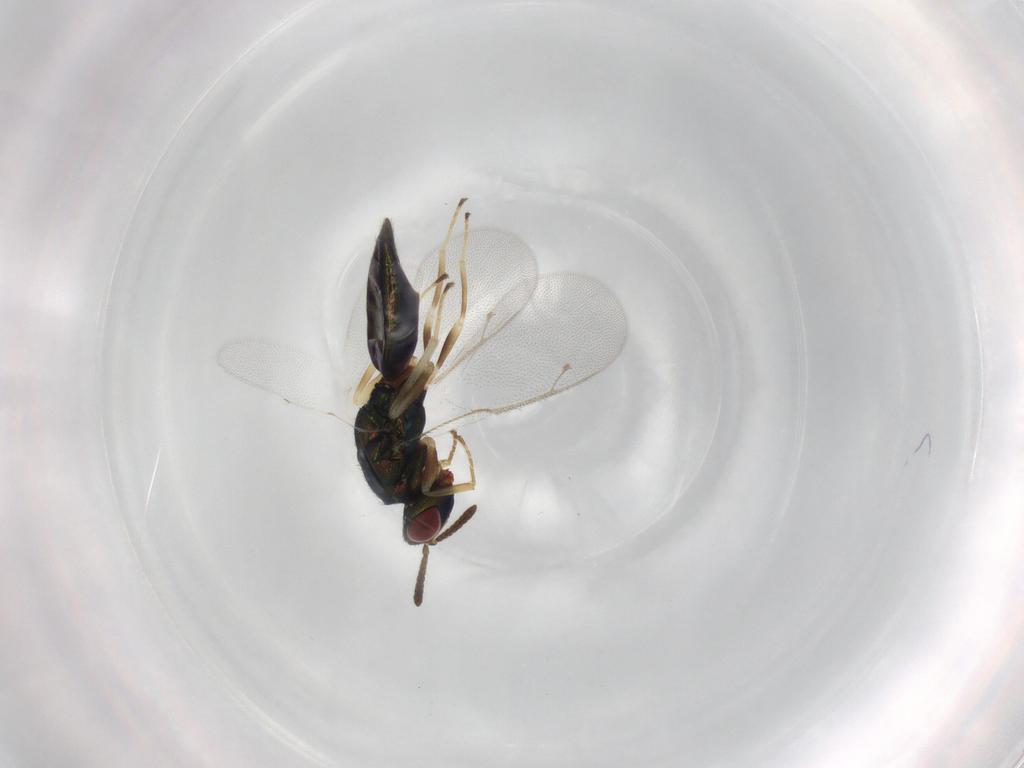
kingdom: Animalia
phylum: Arthropoda
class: Insecta
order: Hymenoptera
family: Pteromalidae
